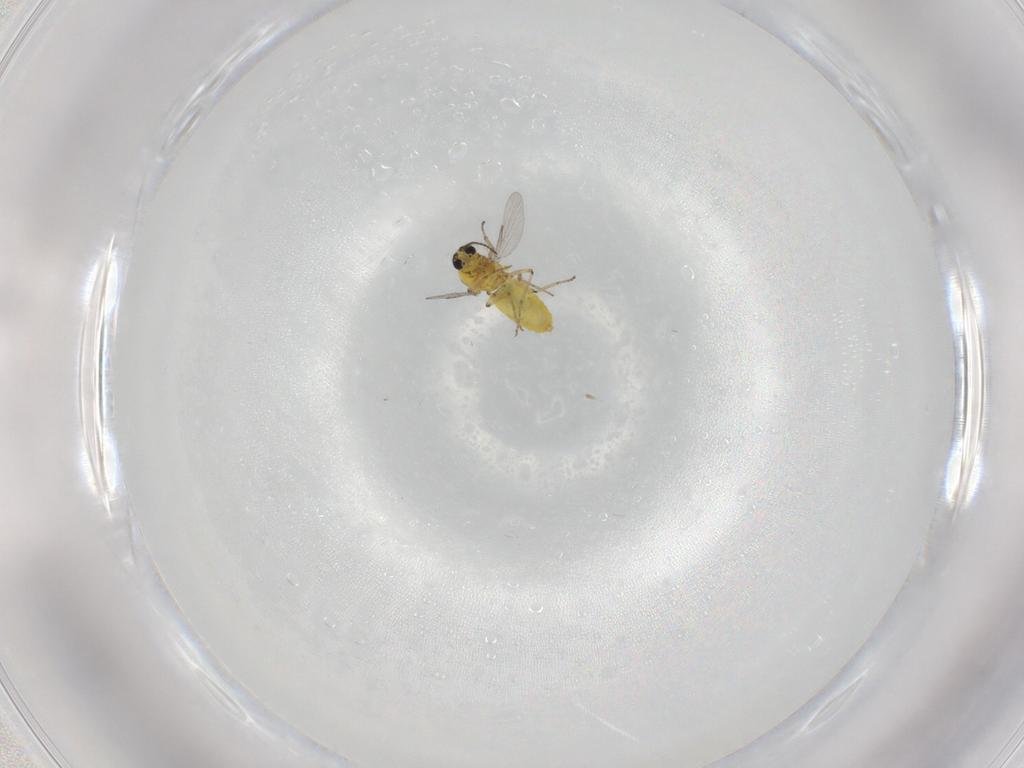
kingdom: Animalia
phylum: Arthropoda
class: Insecta
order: Diptera
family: Ceratopogonidae
